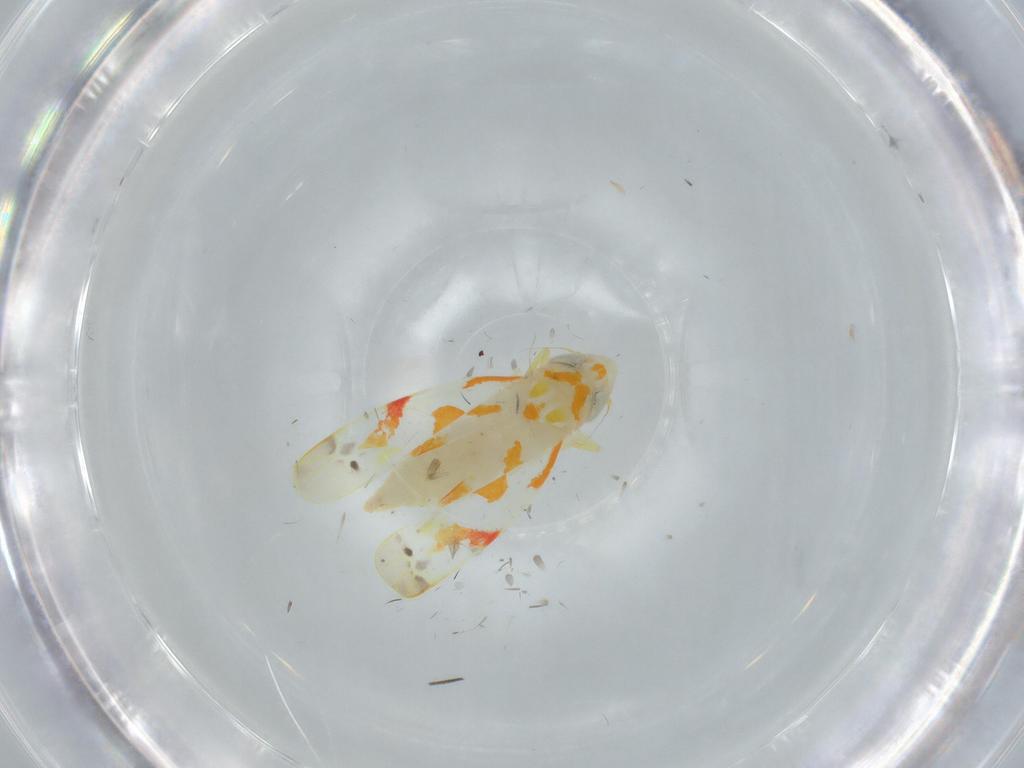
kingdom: Animalia
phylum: Arthropoda
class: Insecta
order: Hemiptera
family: Cicadellidae
